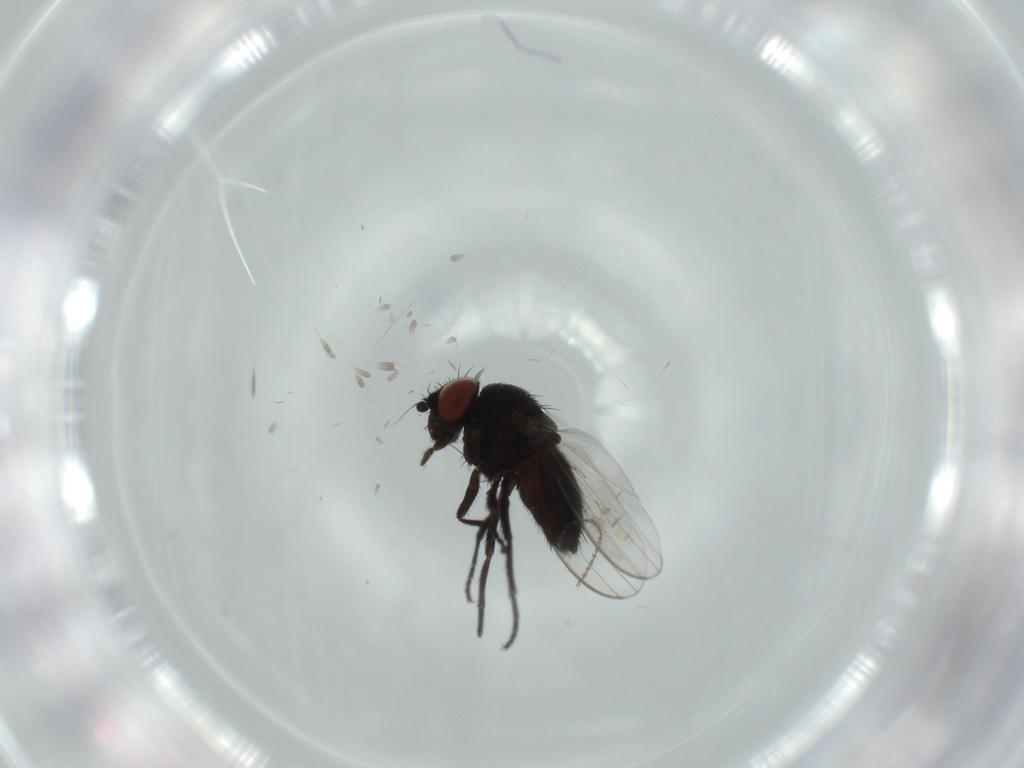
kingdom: Animalia
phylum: Arthropoda
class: Insecta
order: Diptera
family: Milichiidae
